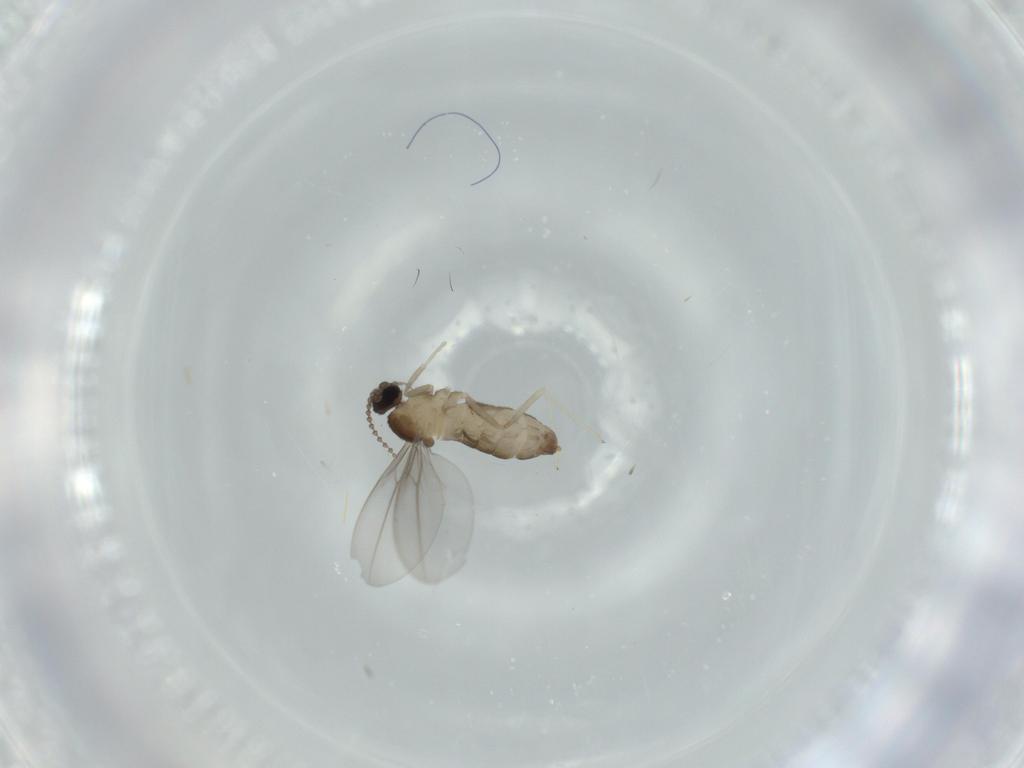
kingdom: Animalia
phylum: Arthropoda
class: Insecta
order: Diptera
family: Cecidomyiidae
